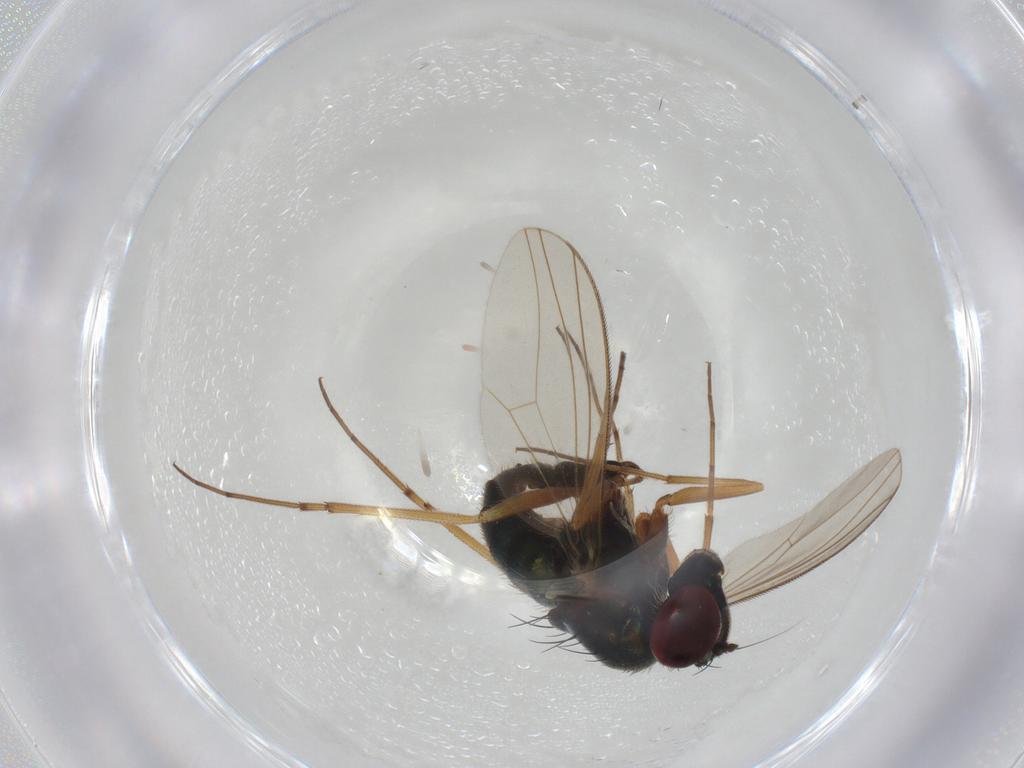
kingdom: Animalia
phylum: Arthropoda
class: Insecta
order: Diptera
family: Dolichopodidae
